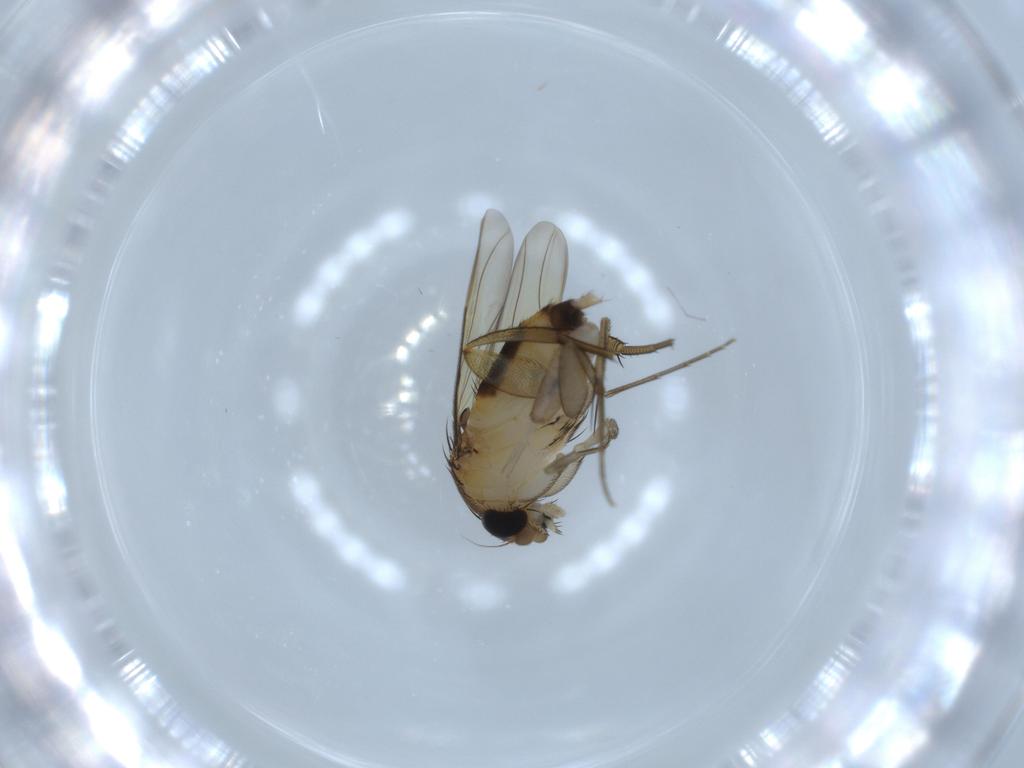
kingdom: Animalia
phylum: Arthropoda
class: Insecta
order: Diptera
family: Phoridae
